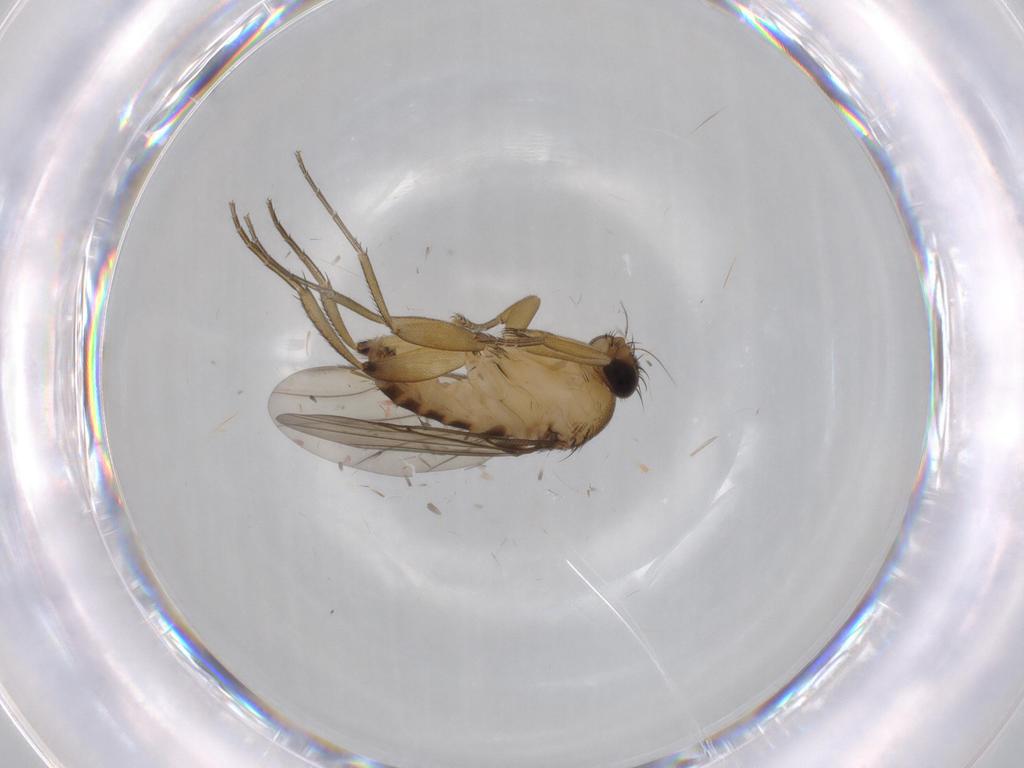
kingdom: Animalia
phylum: Arthropoda
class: Insecta
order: Diptera
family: Phoridae
